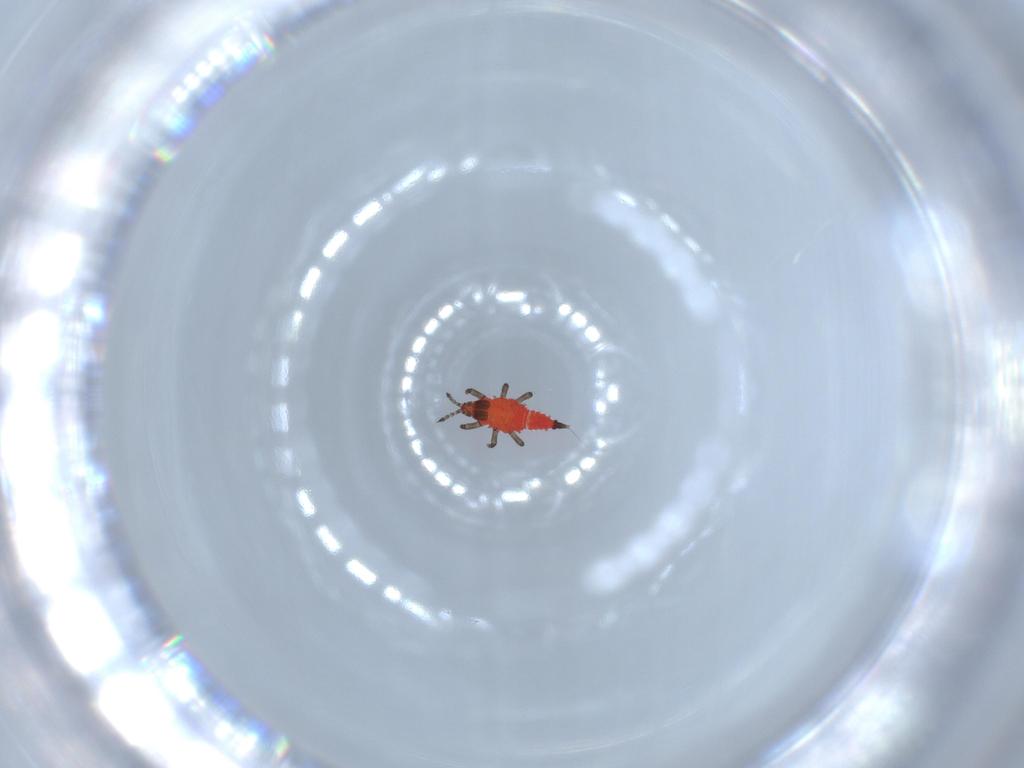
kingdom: Animalia
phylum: Arthropoda
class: Insecta
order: Thysanoptera
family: Phlaeothripidae
